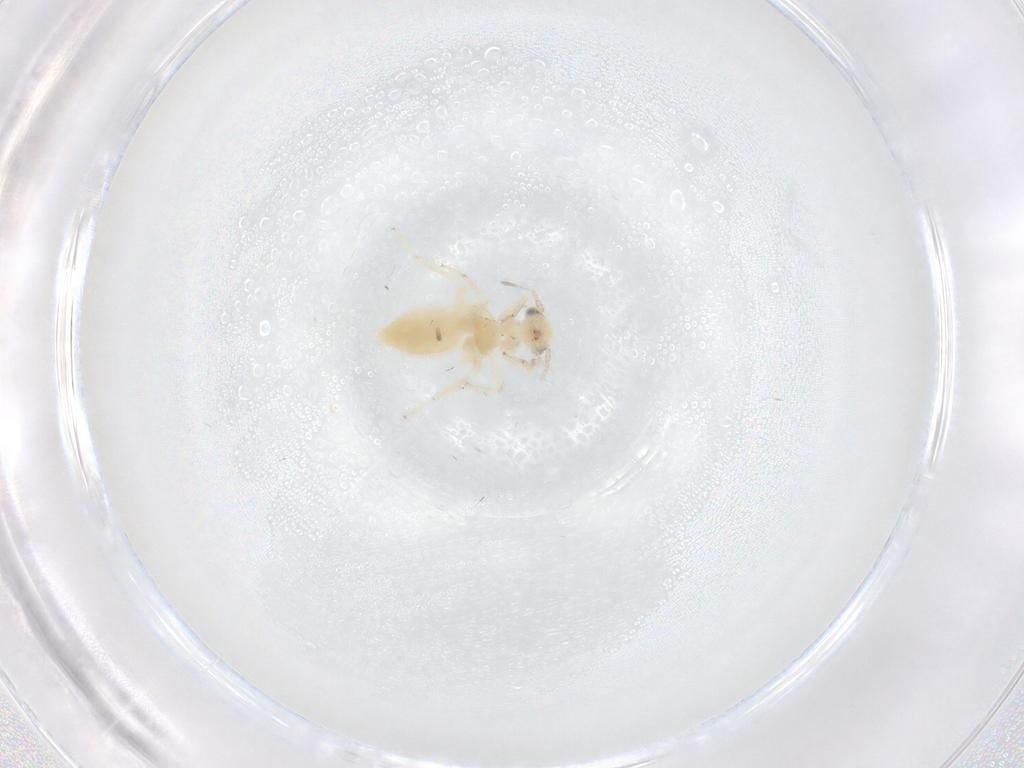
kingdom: Animalia
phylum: Arthropoda
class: Insecta
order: Psocodea
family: Lepidopsocidae
